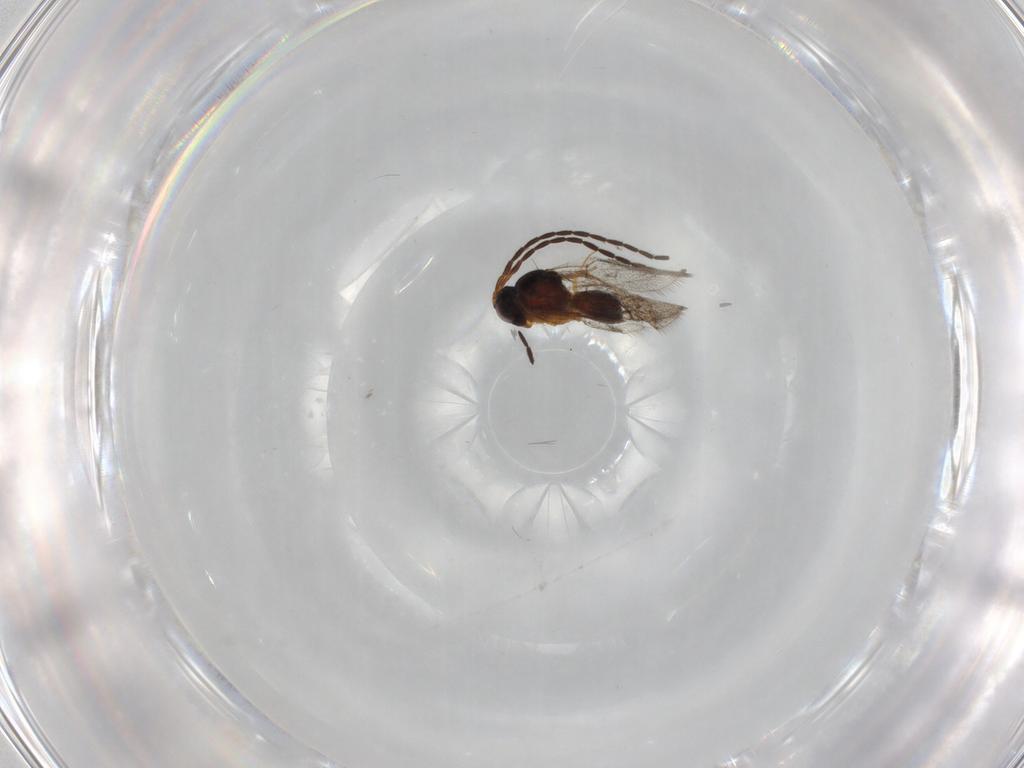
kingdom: Animalia
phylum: Arthropoda
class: Insecta
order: Hymenoptera
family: Figitidae
